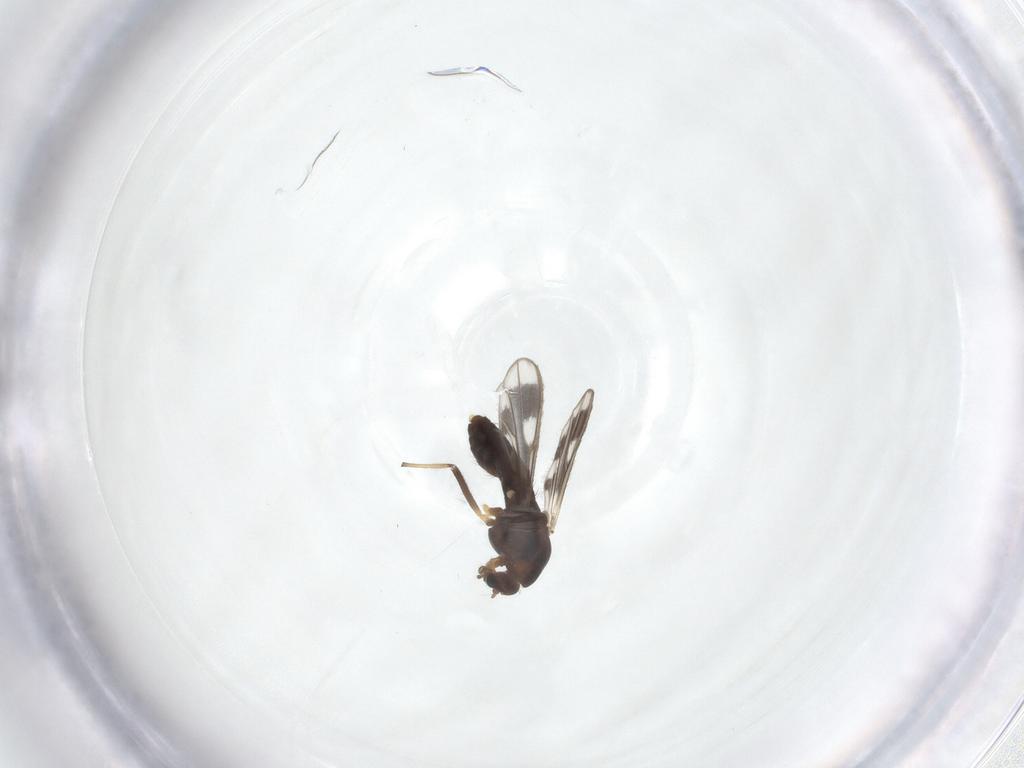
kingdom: Animalia
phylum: Arthropoda
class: Insecta
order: Diptera
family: Chironomidae
